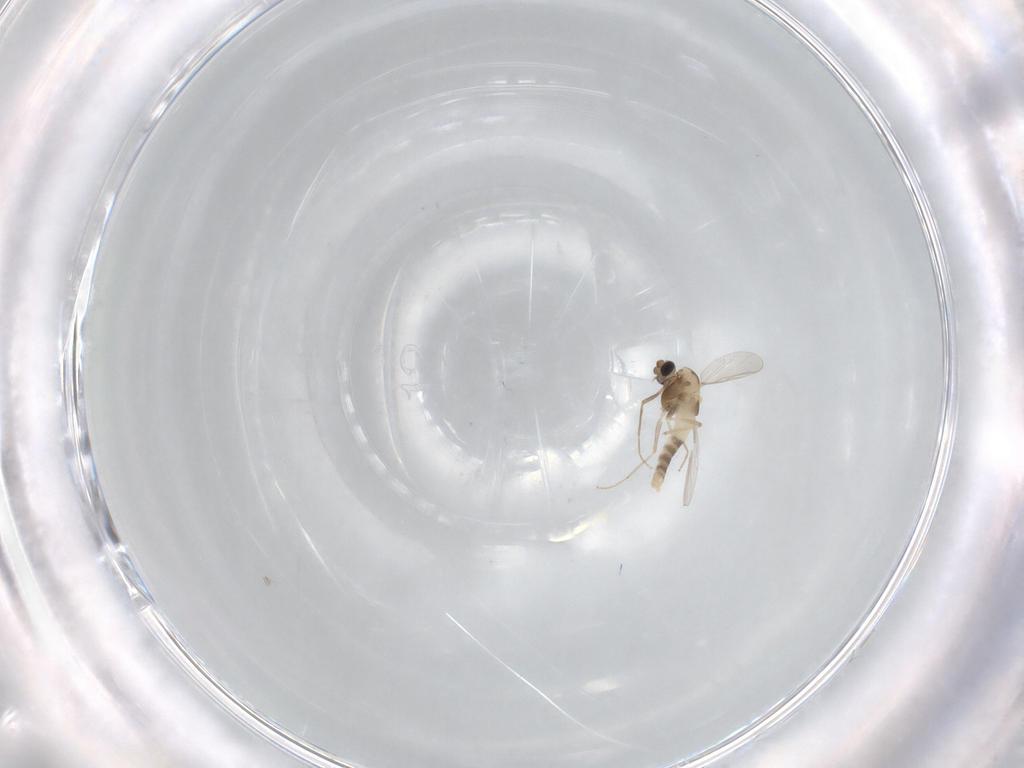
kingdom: Animalia
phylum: Arthropoda
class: Insecta
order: Diptera
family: Chironomidae
